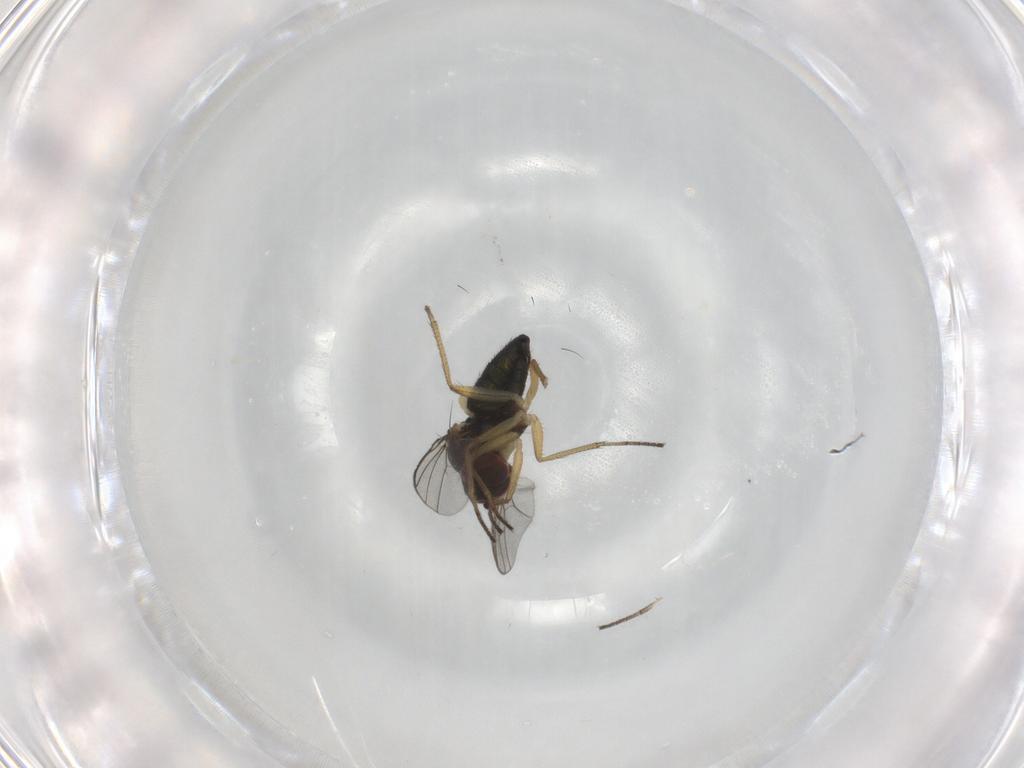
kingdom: Animalia
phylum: Arthropoda
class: Insecta
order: Diptera
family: Dolichopodidae
